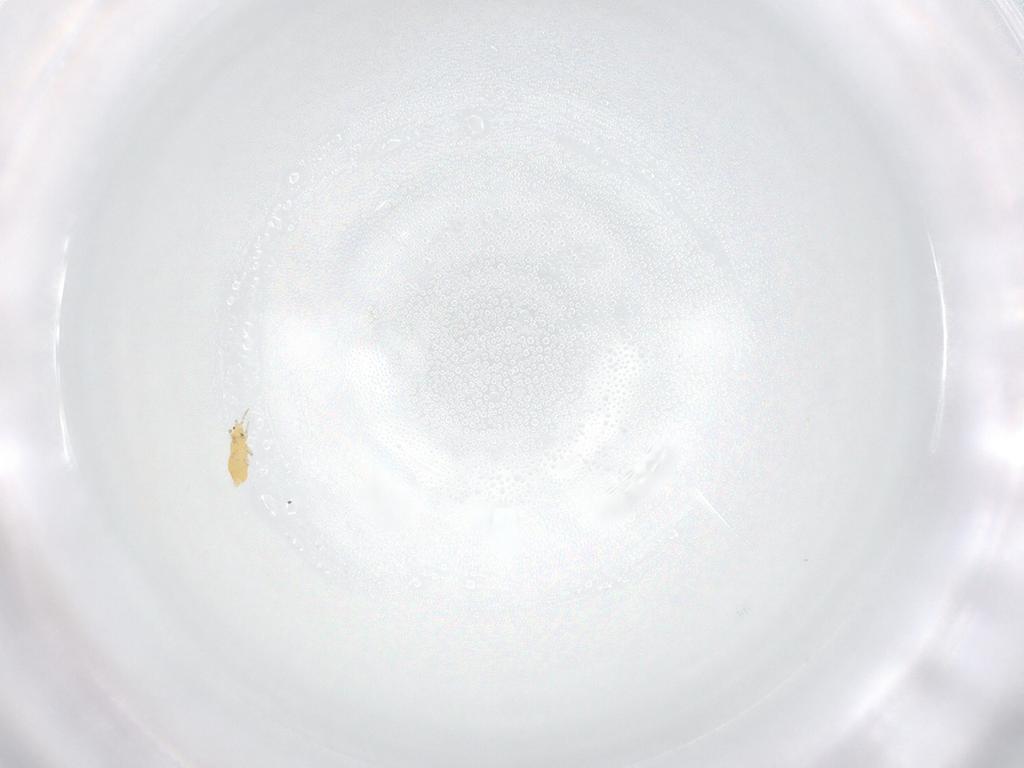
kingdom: Animalia
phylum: Arthropoda
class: Insecta
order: Thysanoptera
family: Thripidae
